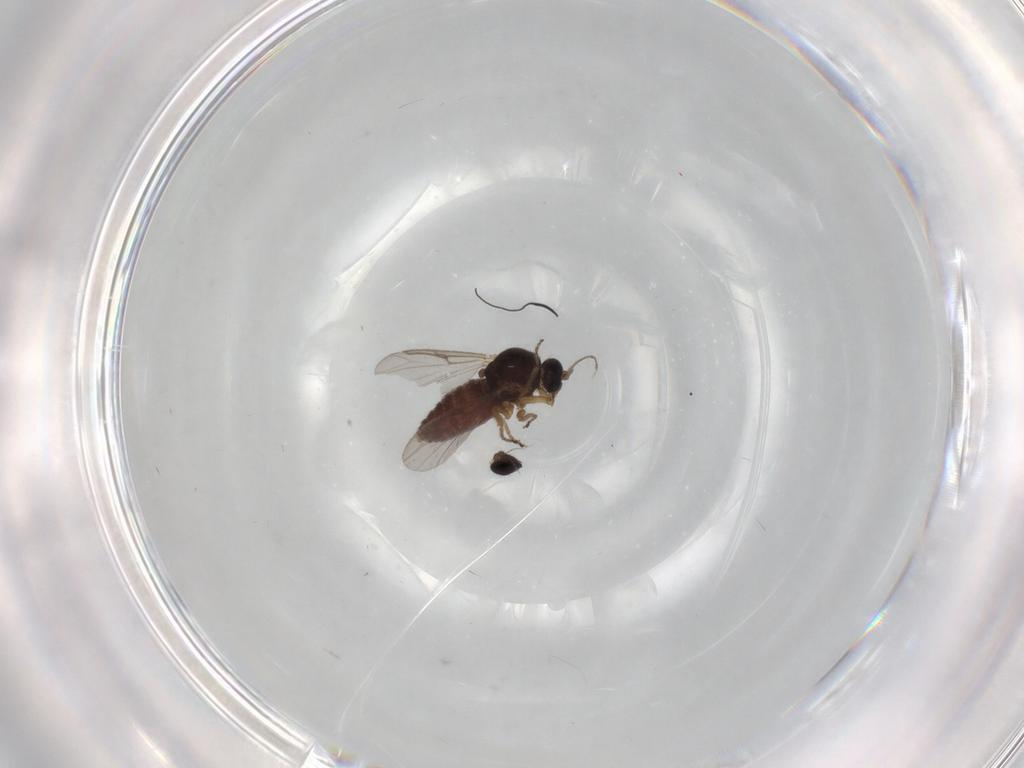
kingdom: Animalia
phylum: Arthropoda
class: Insecta
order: Diptera
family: Ceratopogonidae
